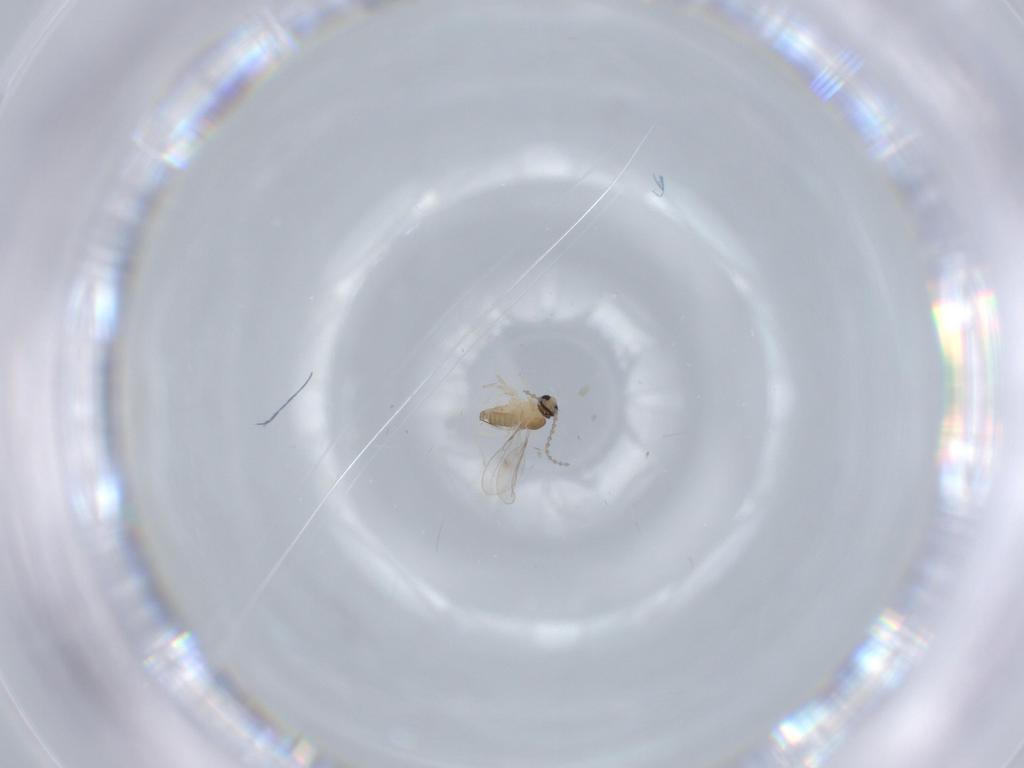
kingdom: Animalia
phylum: Arthropoda
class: Insecta
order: Diptera
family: Cecidomyiidae
